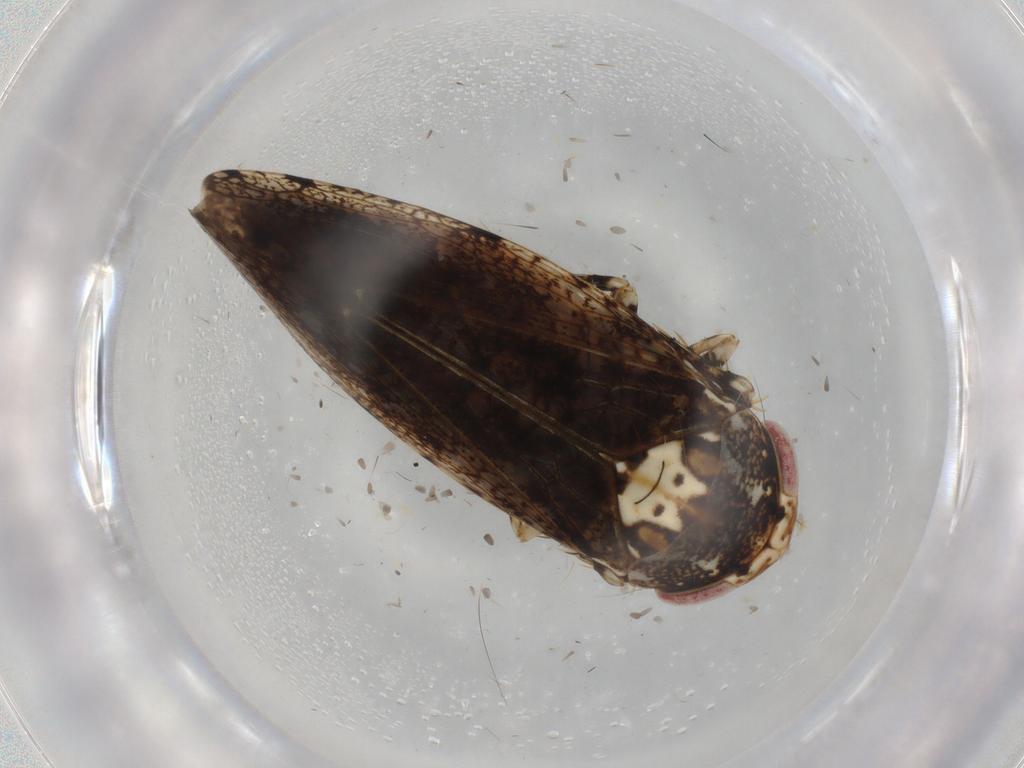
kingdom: Animalia
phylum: Arthropoda
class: Insecta
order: Hemiptera
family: Cicadellidae
